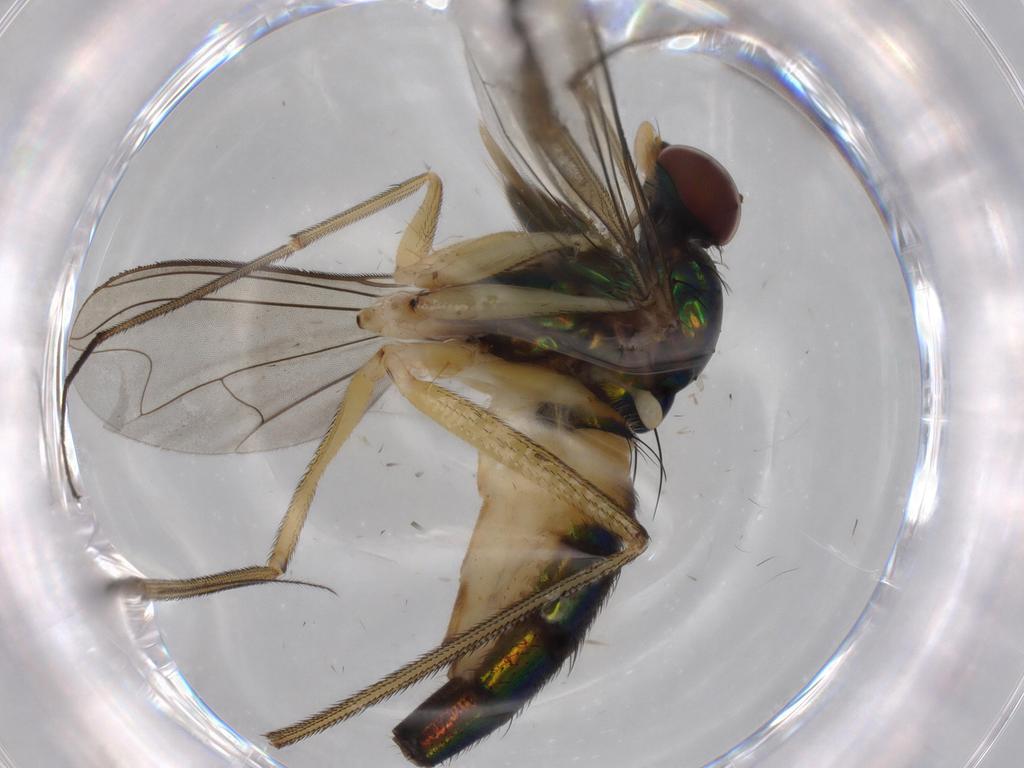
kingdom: Animalia
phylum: Arthropoda
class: Insecta
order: Diptera
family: Dolichopodidae
